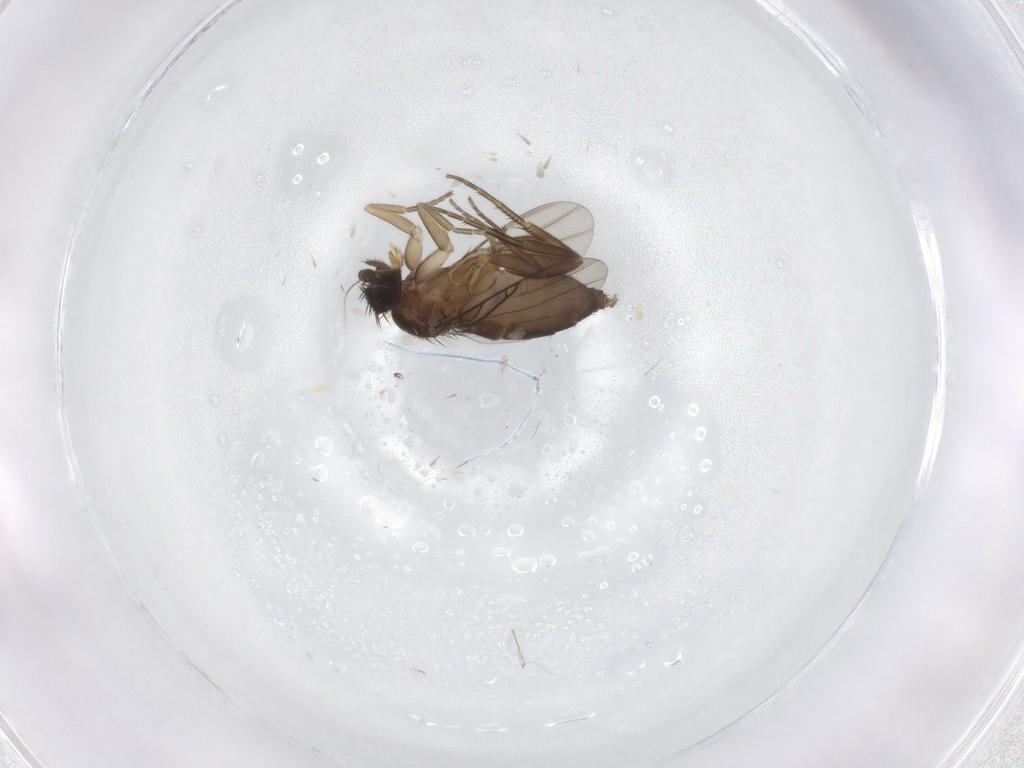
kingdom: Animalia
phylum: Arthropoda
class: Insecta
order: Diptera
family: Phoridae
